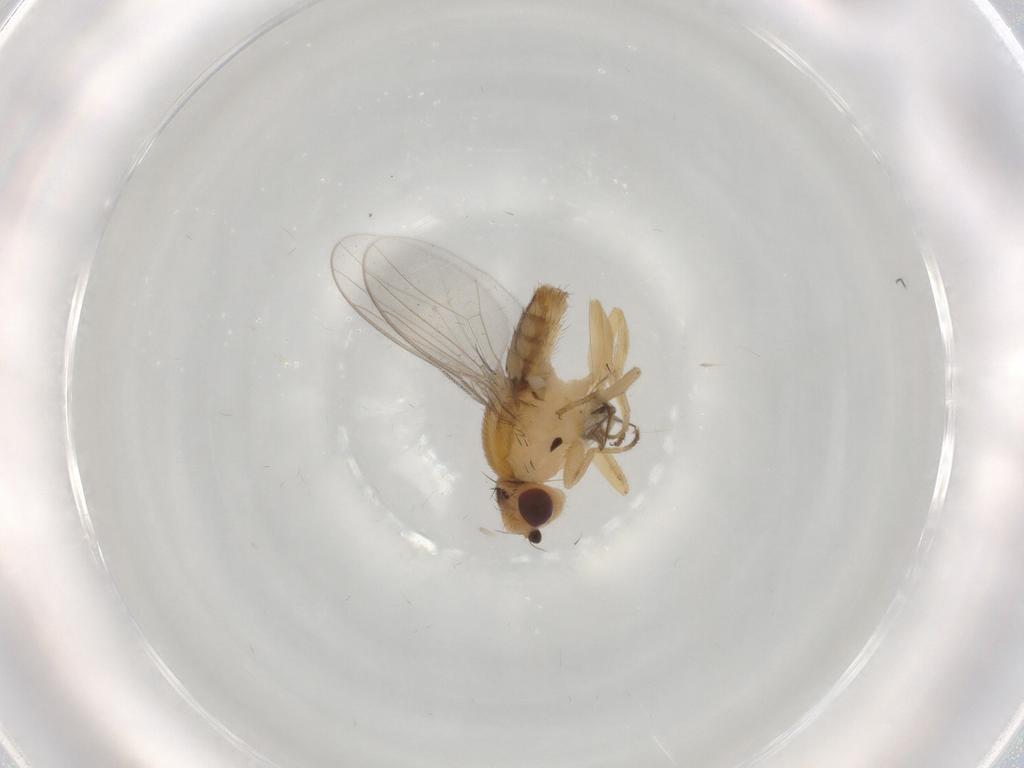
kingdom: Animalia
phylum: Arthropoda
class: Insecta
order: Diptera
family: Chloropidae
